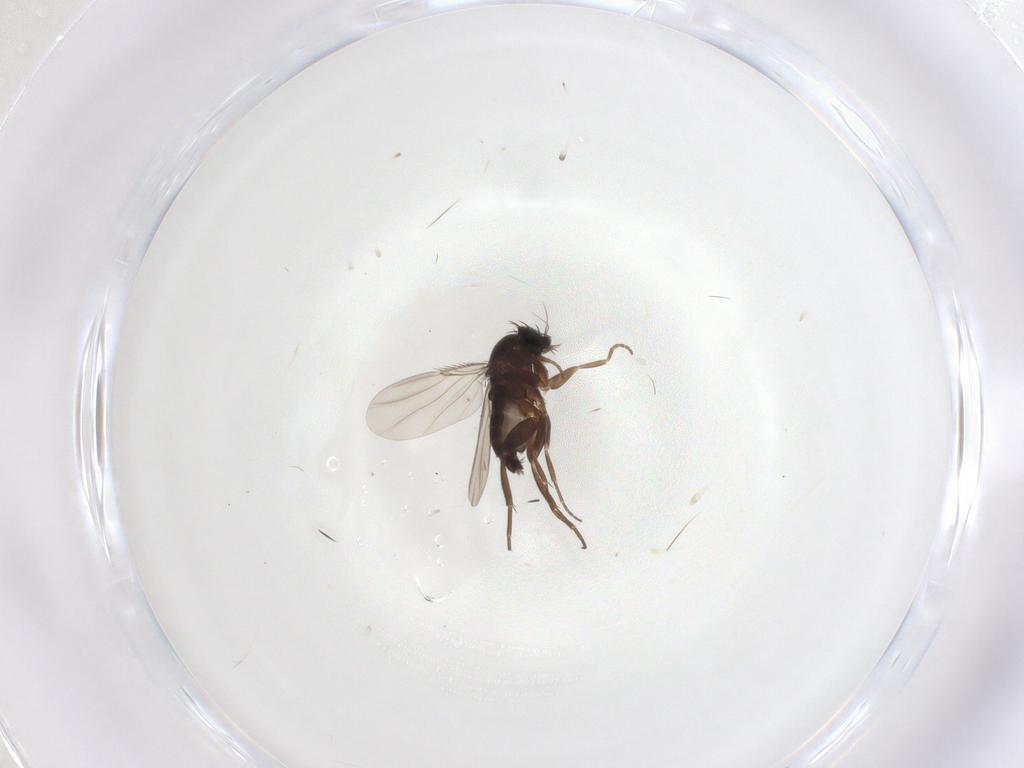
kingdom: Animalia
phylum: Arthropoda
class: Insecta
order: Diptera
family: Phoridae
